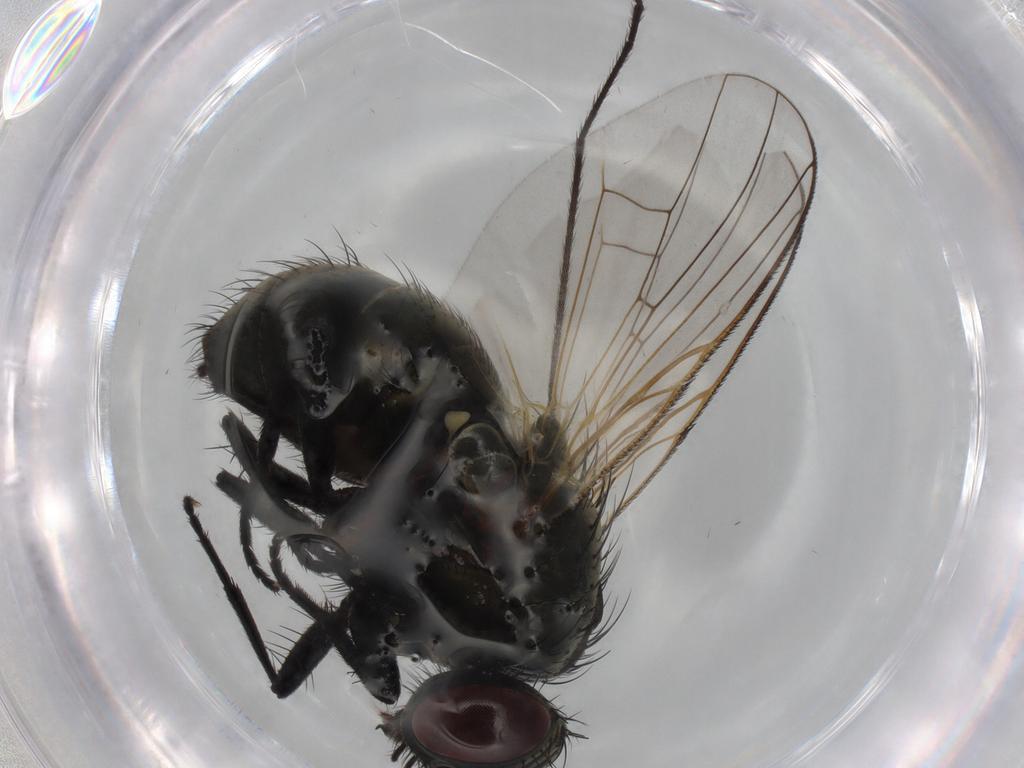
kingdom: Animalia
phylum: Arthropoda
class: Insecta
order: Diptera
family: Muscidae
